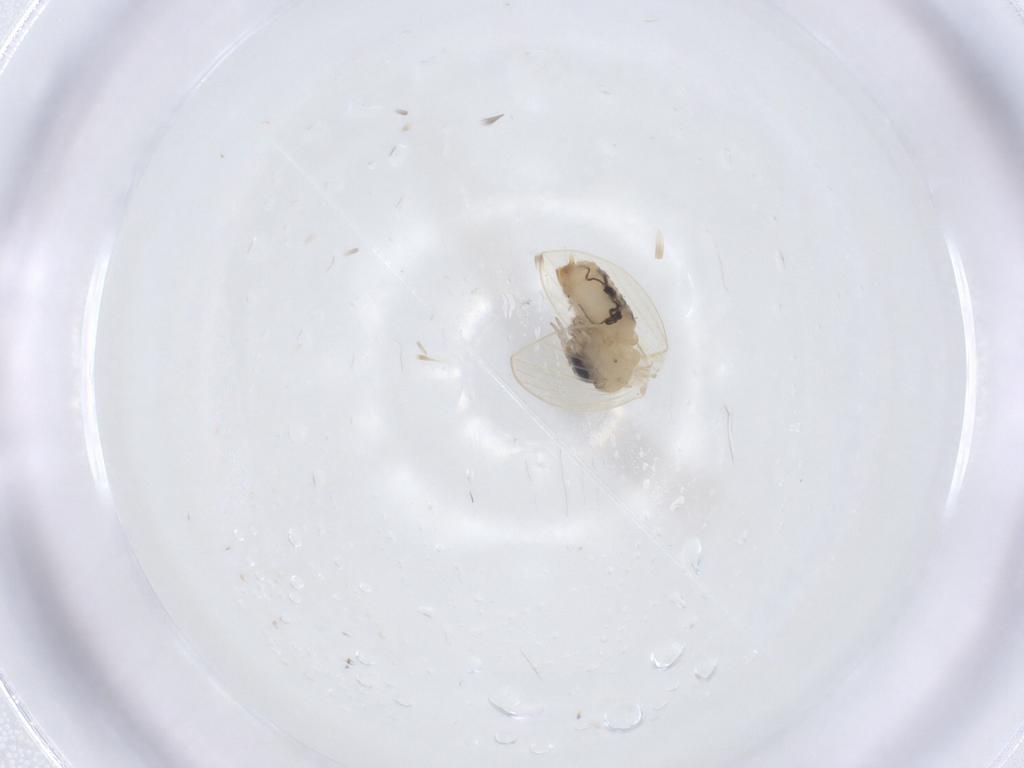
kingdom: Animalia
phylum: Arthropoda
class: Insecta
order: Diptera
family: Psychodidae
